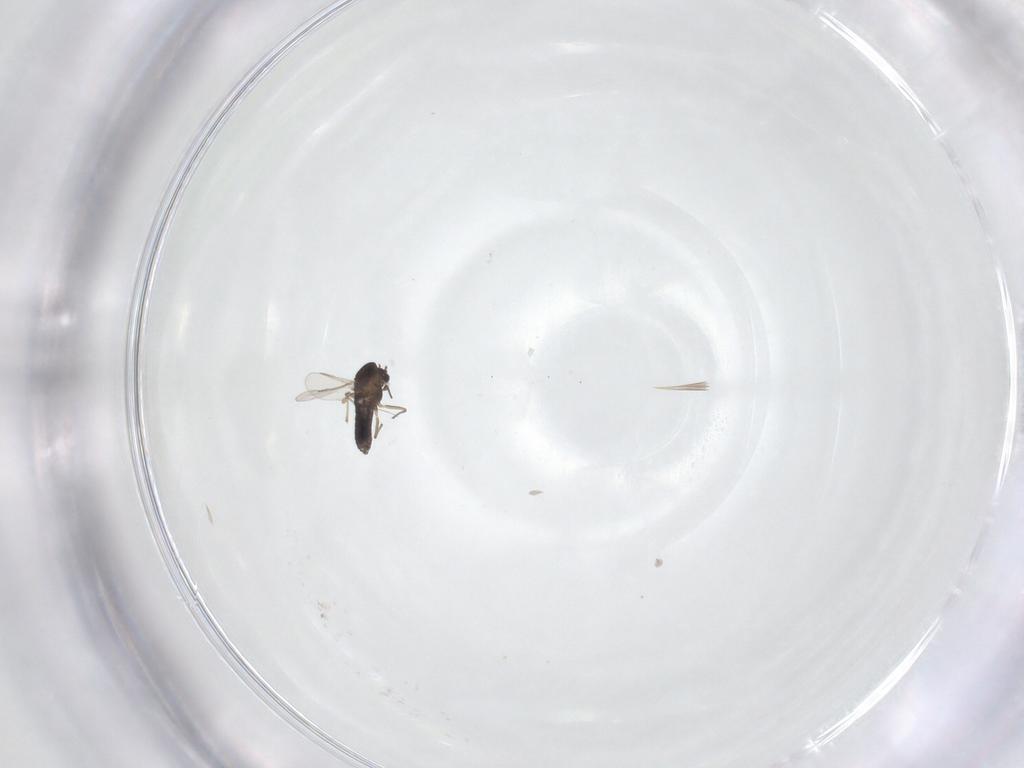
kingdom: Animalia
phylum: Arthropoda
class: Insecta
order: Diptera
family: Chironomidae
